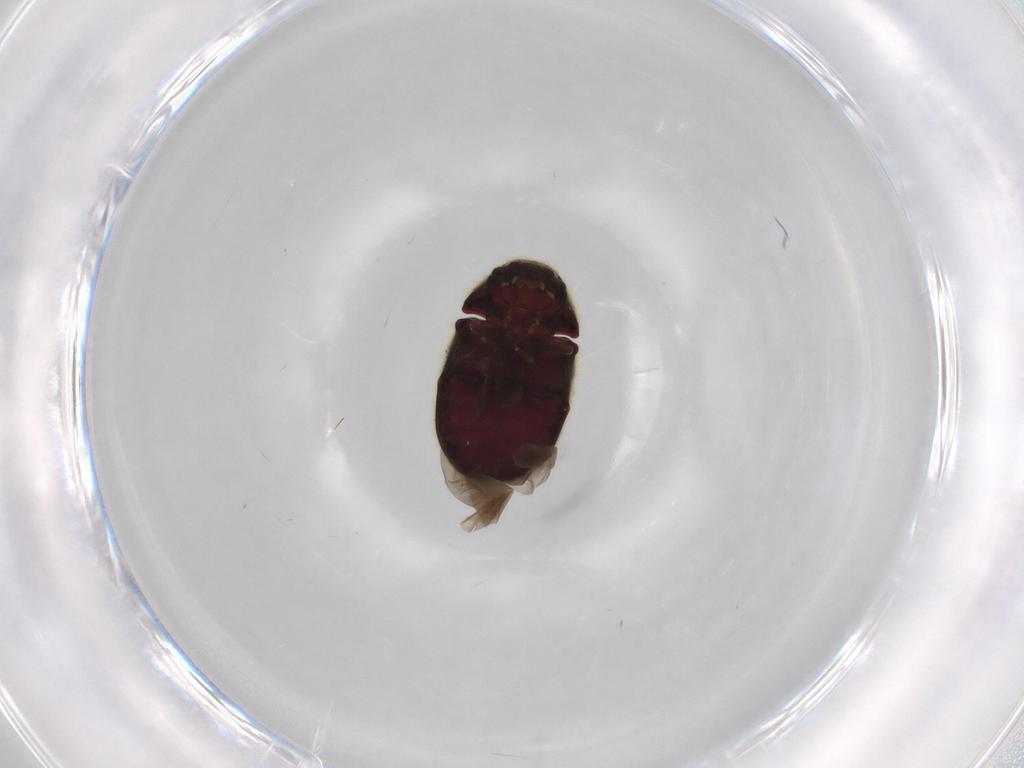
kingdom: Animalia
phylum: Arthropoda
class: Insecta
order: Coleoptera
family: Ptinidae
